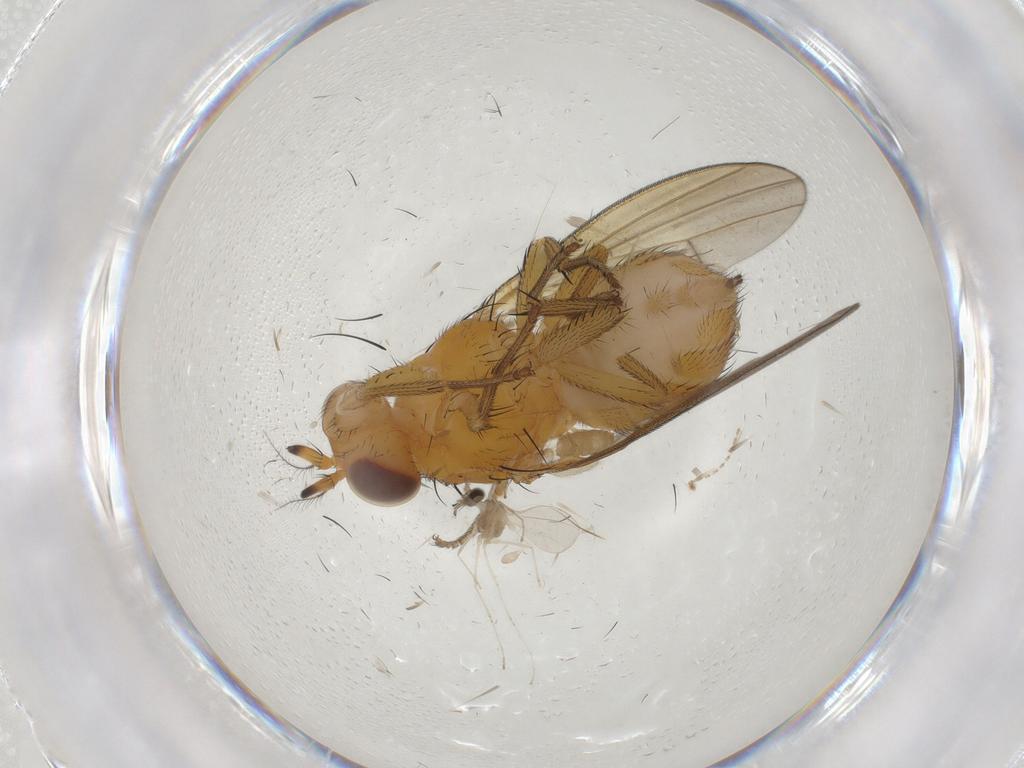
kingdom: Animalia
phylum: Arthropoda
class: Insecta
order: Diptera
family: Lauxaniidae
